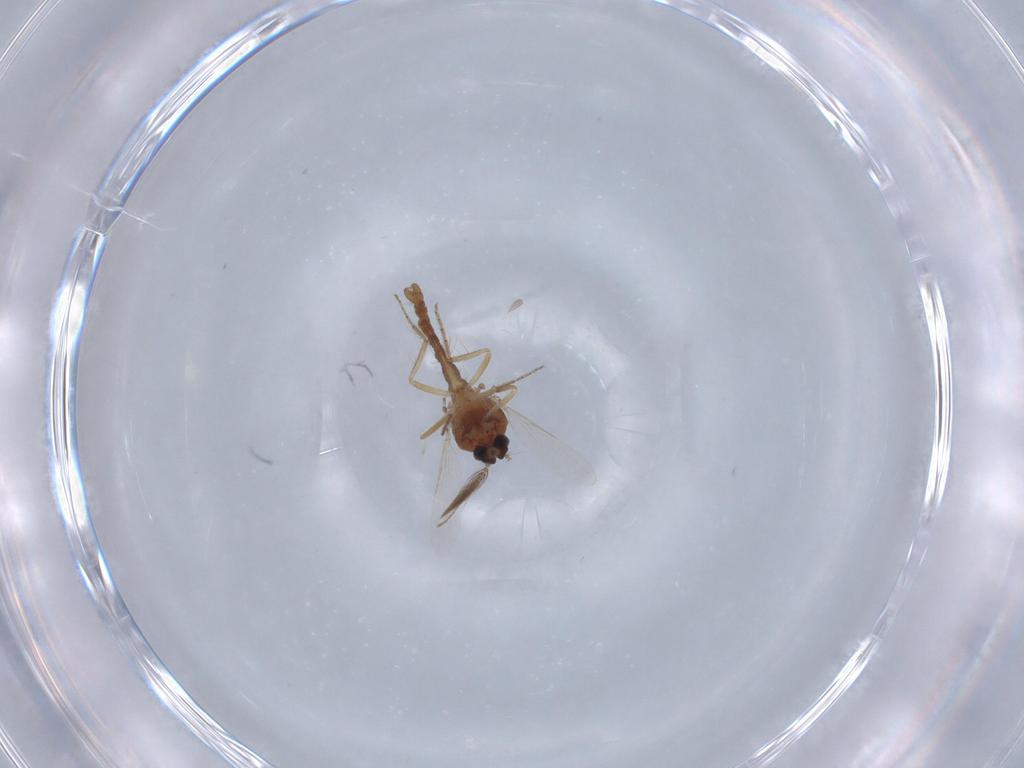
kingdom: Animalia
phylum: Arthropoda
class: Insecta
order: Diptera
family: Ceratopogonidae
